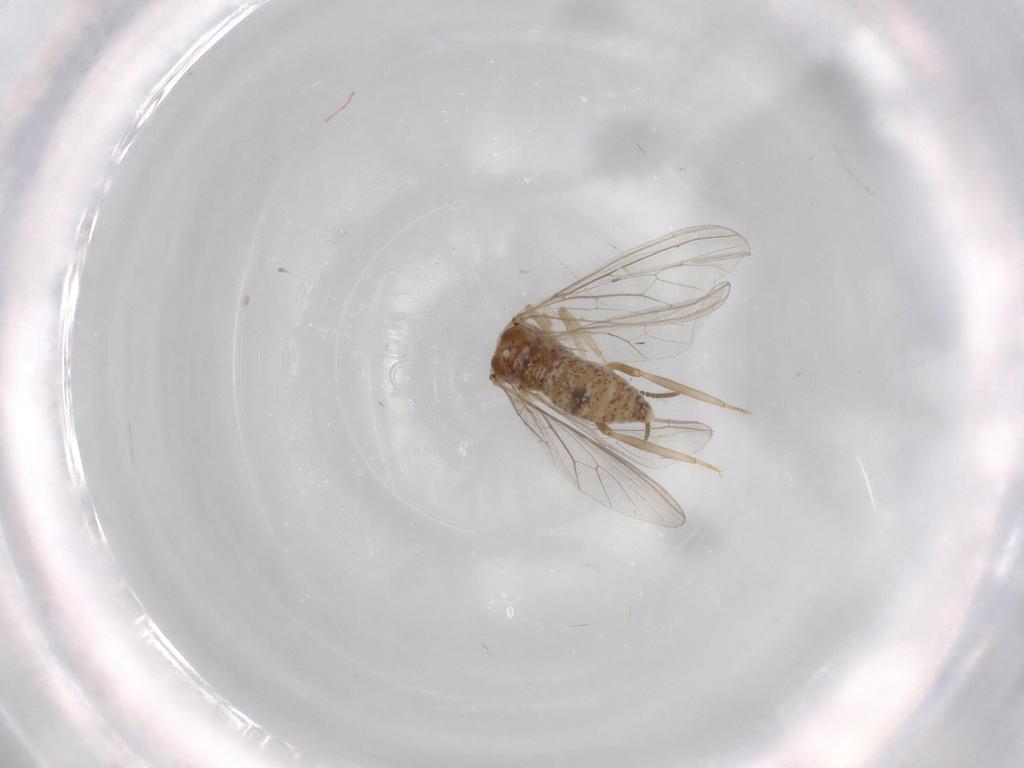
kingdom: Animalia
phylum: Arthropoda
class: Insecta
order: Neuroptera
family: Coniopterygidae
